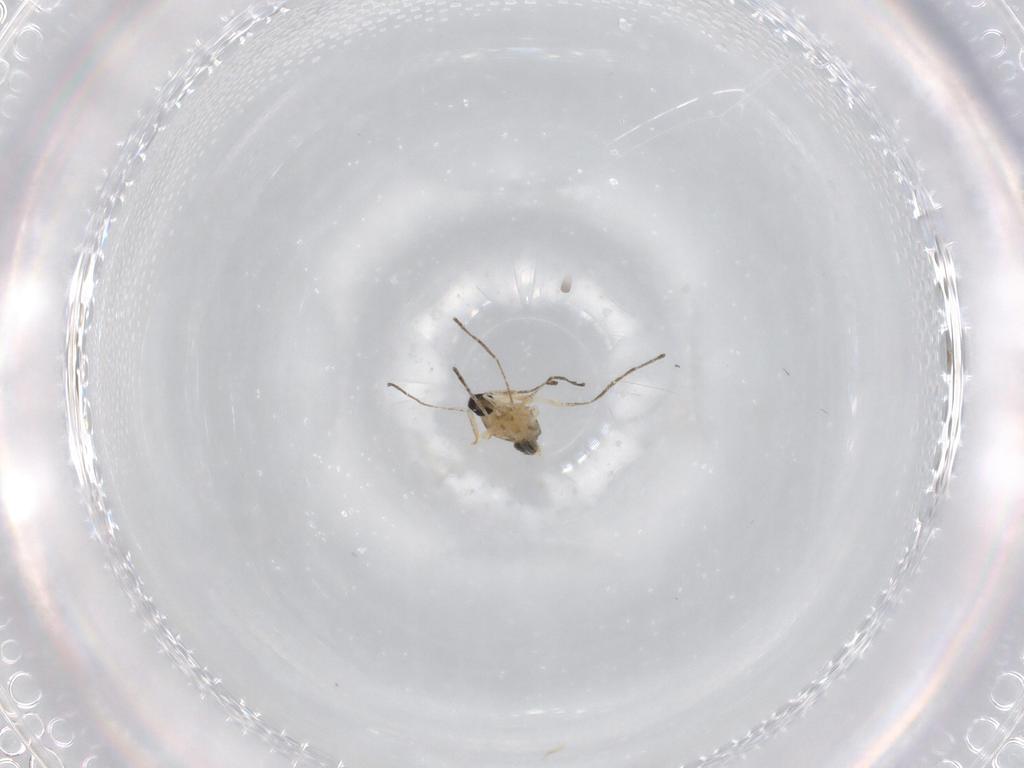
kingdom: Animalia
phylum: Arthropoda
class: Insecta
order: Diptera
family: Cecidomyiidae
